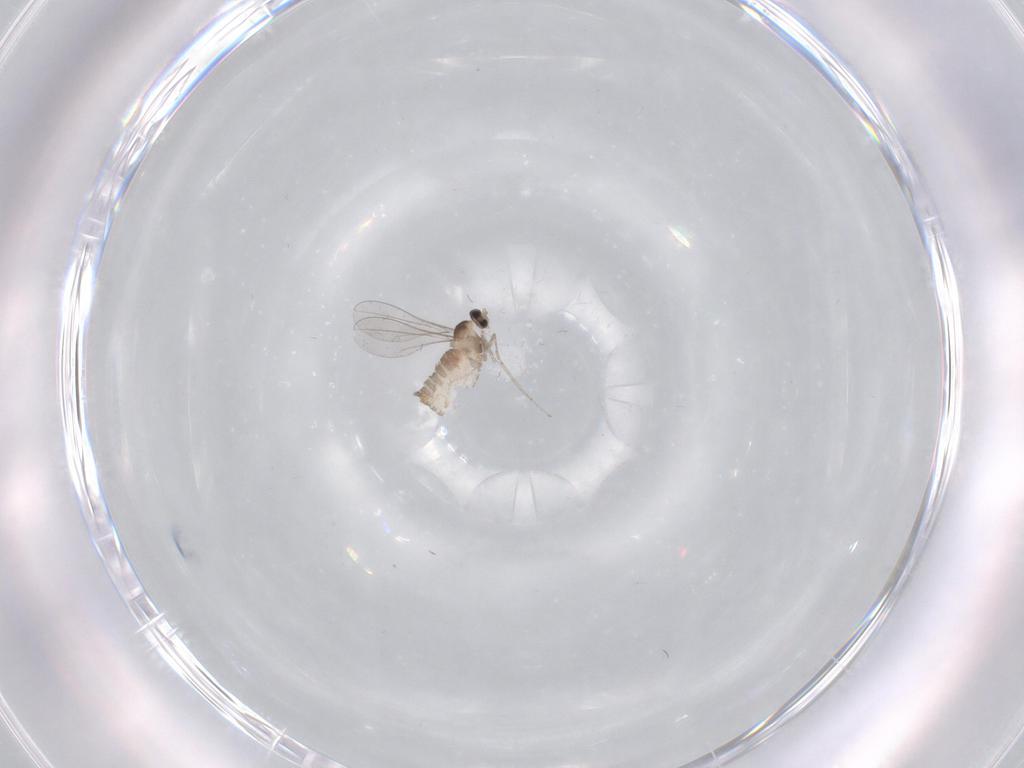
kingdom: Animalia
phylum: Arthropoda
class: Insecta
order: Diptera
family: Cecidomyiidae
